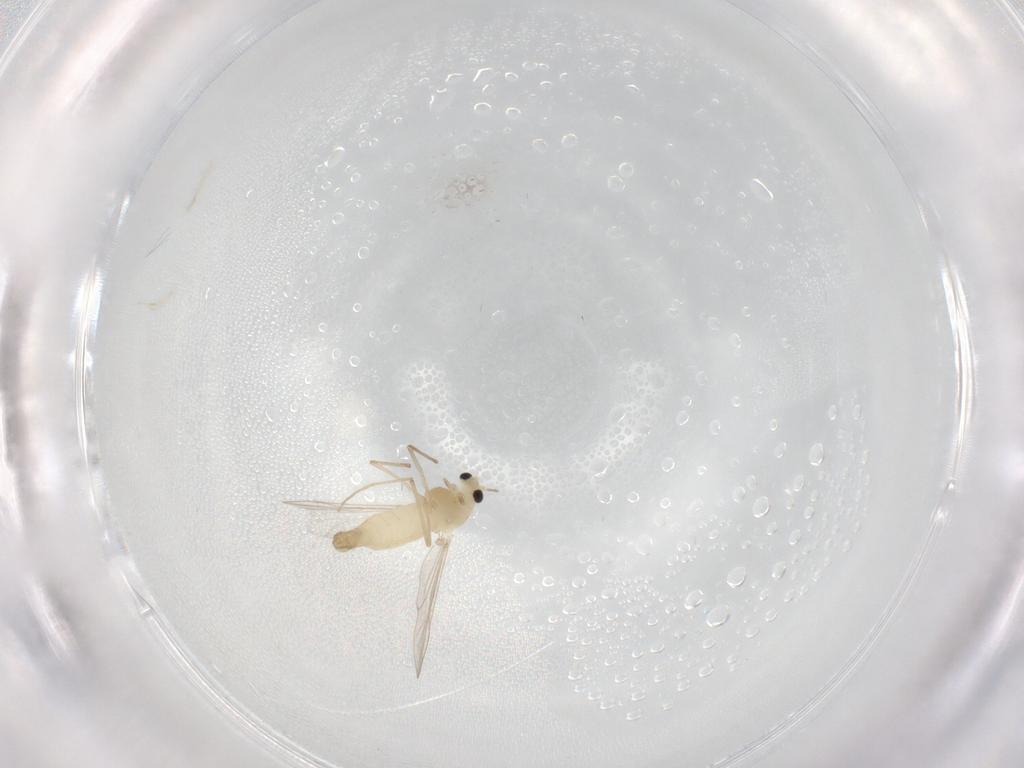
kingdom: Animalia
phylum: Arthropoda
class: Insecta
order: Diptera
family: Chironomidae
